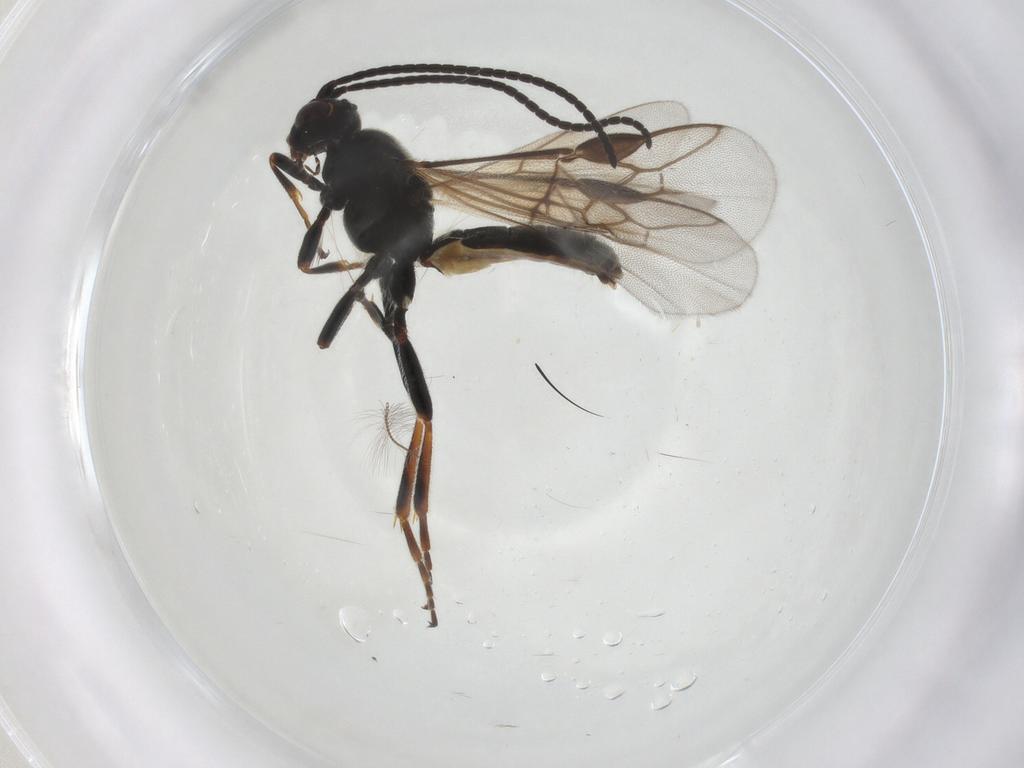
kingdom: Animalia
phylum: Arthropoda
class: Insecta
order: Hymenoptera
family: Braconidae
